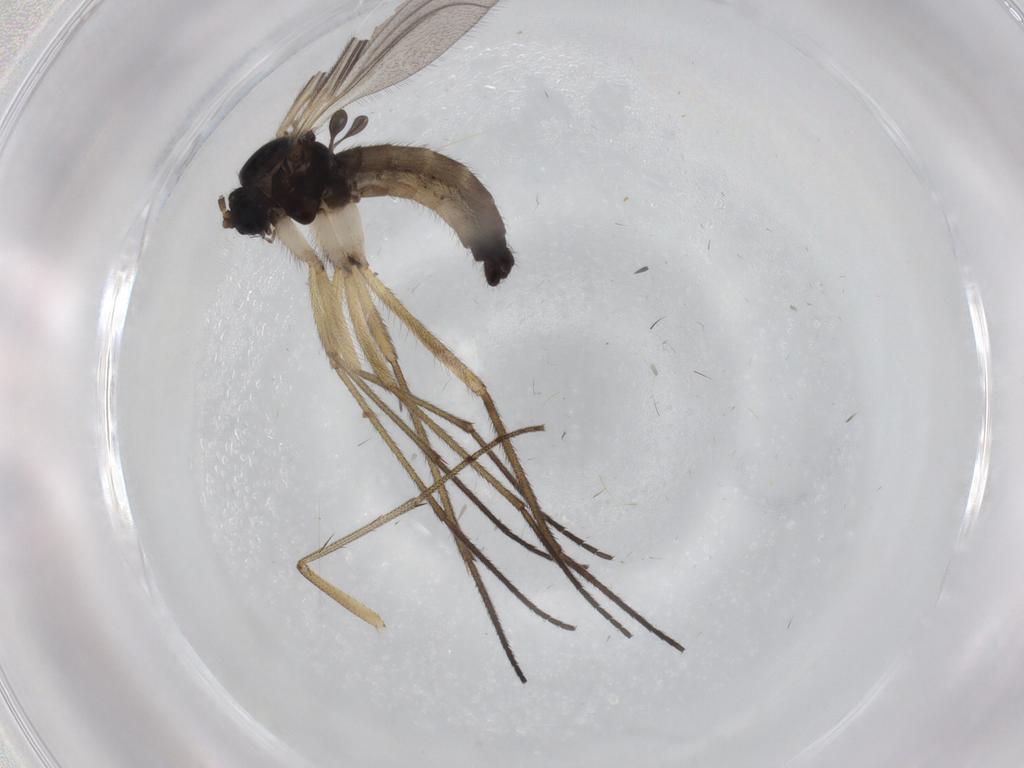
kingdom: Animalia
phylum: Arthropoda
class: Insecta
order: Diptera
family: Sciaridae
